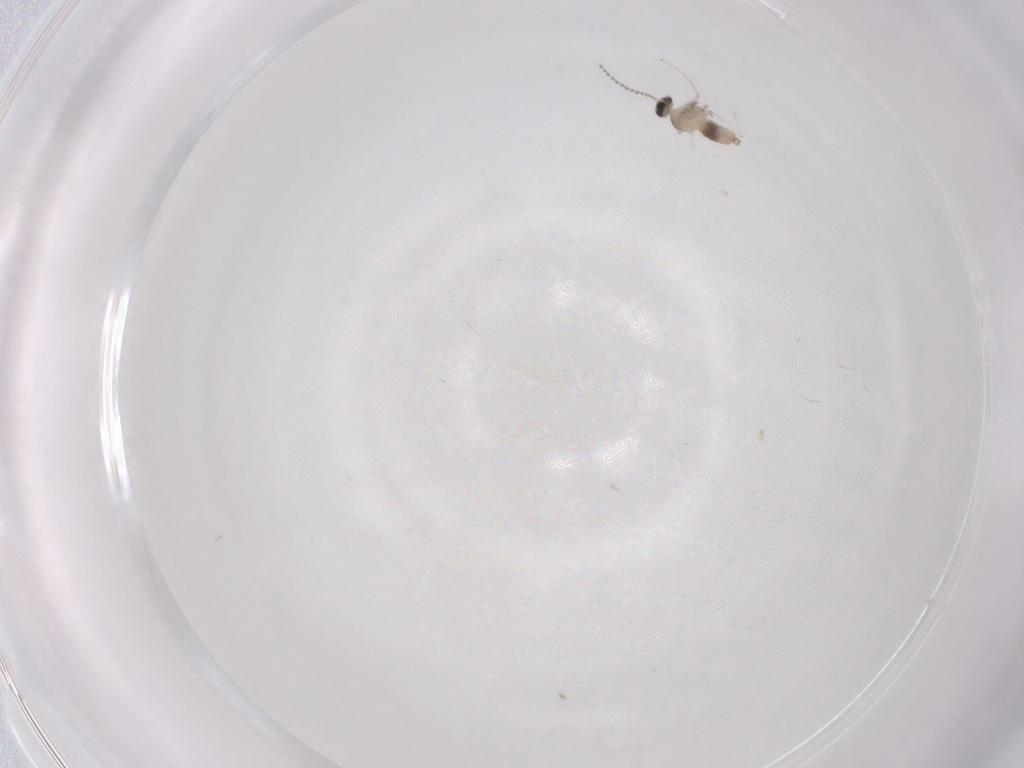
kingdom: Animalia
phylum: Arthropoda
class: Insecta
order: Diptera
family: Cecidomyiidae
